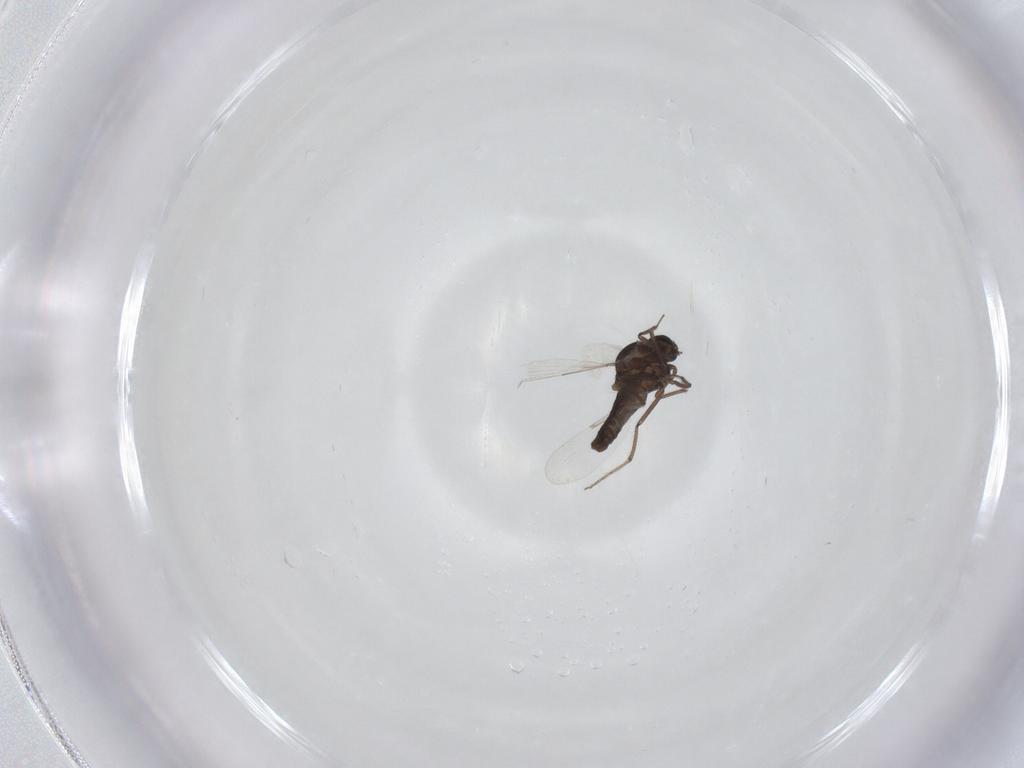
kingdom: Animalia
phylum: Arthropoda
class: Insecta
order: Diptera
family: Ceratopogonidae
